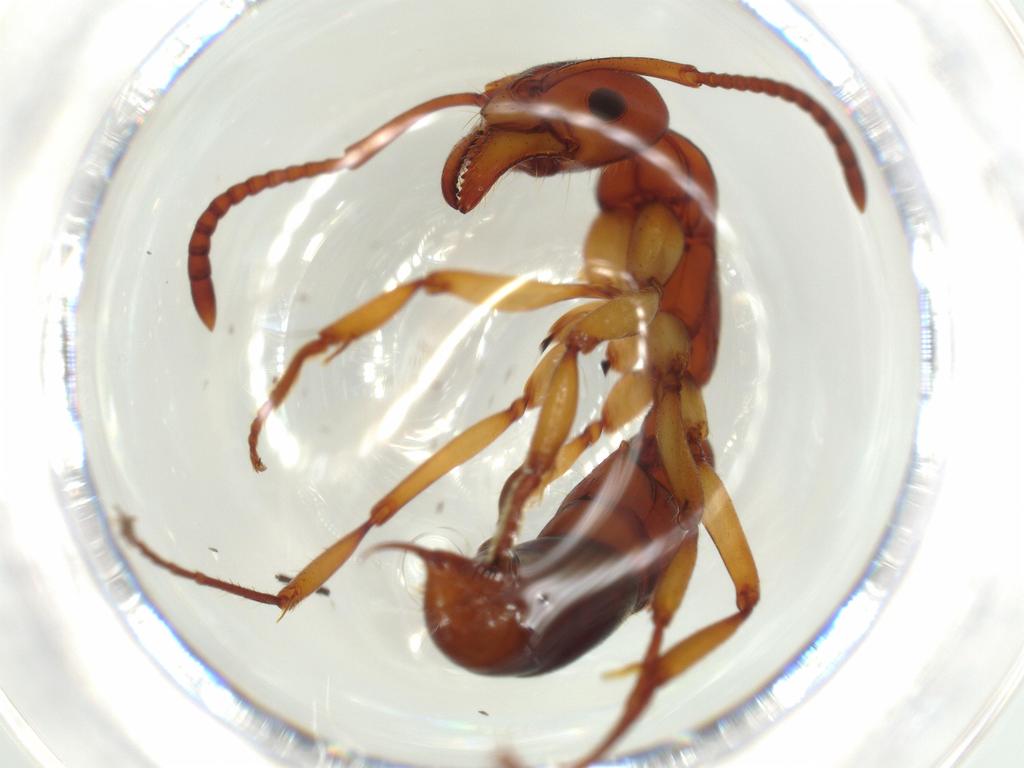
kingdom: Animalia
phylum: Arthropoda
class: Insecta
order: Hymenoptera
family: Formicidae
